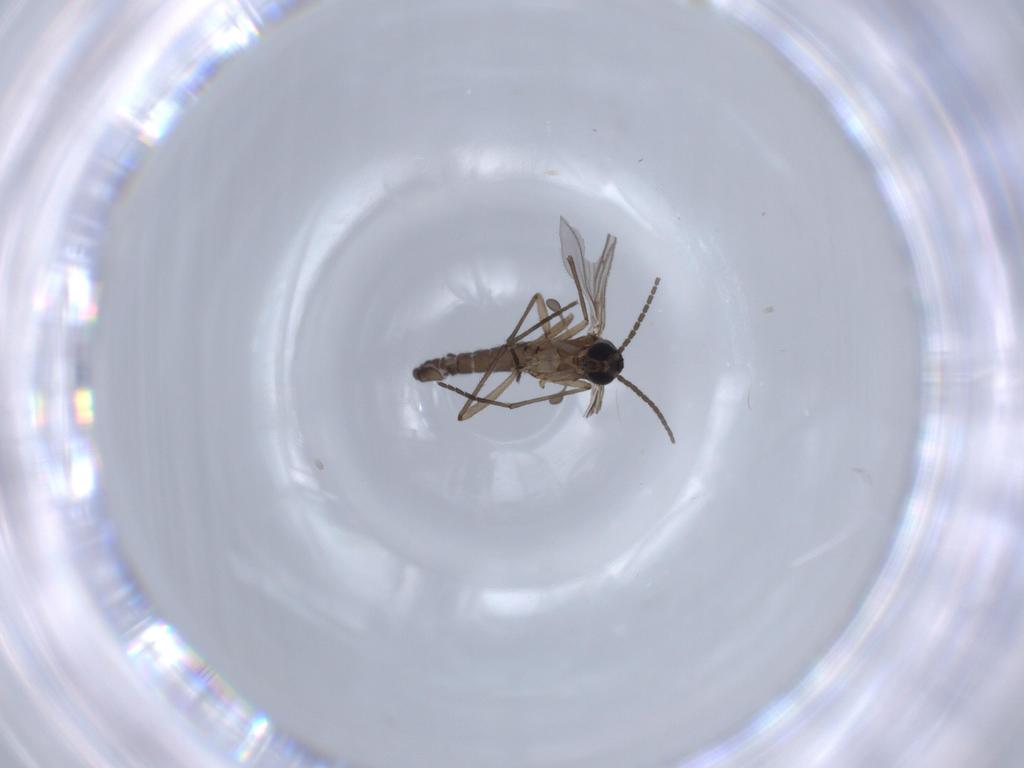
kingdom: Animalia
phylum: Arthropoda
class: Insecta
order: Diptera
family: Sciaridae
